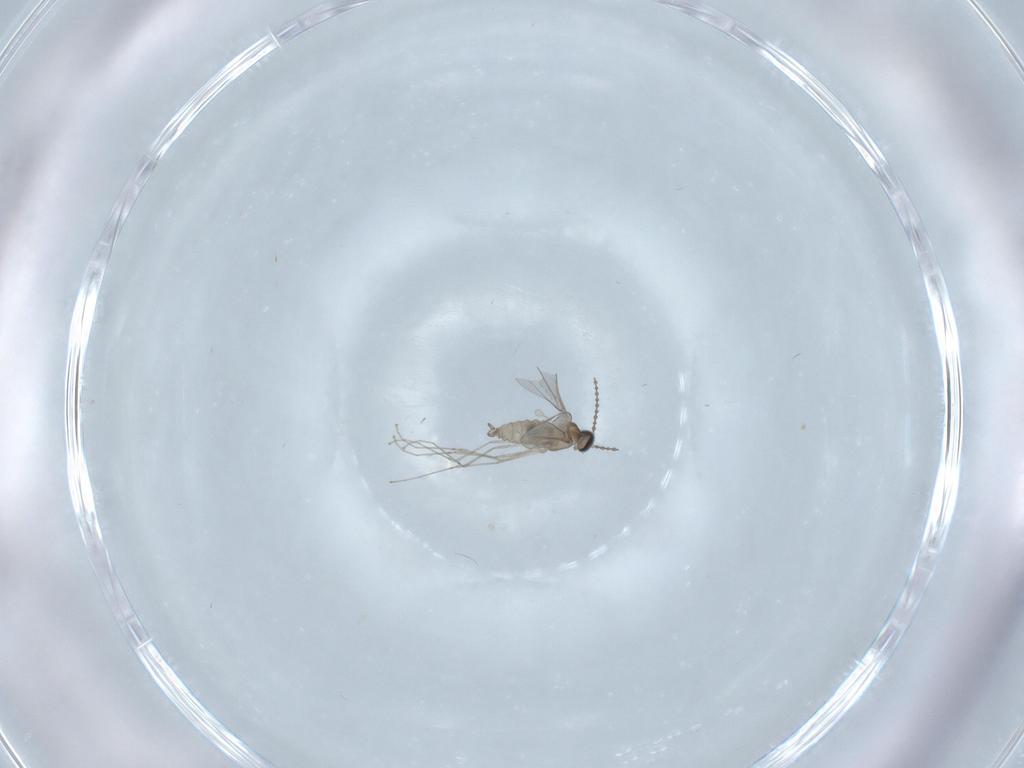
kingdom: Animalia
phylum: Arthropoda
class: Insecta
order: Diptera
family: Cecidomyiidae
